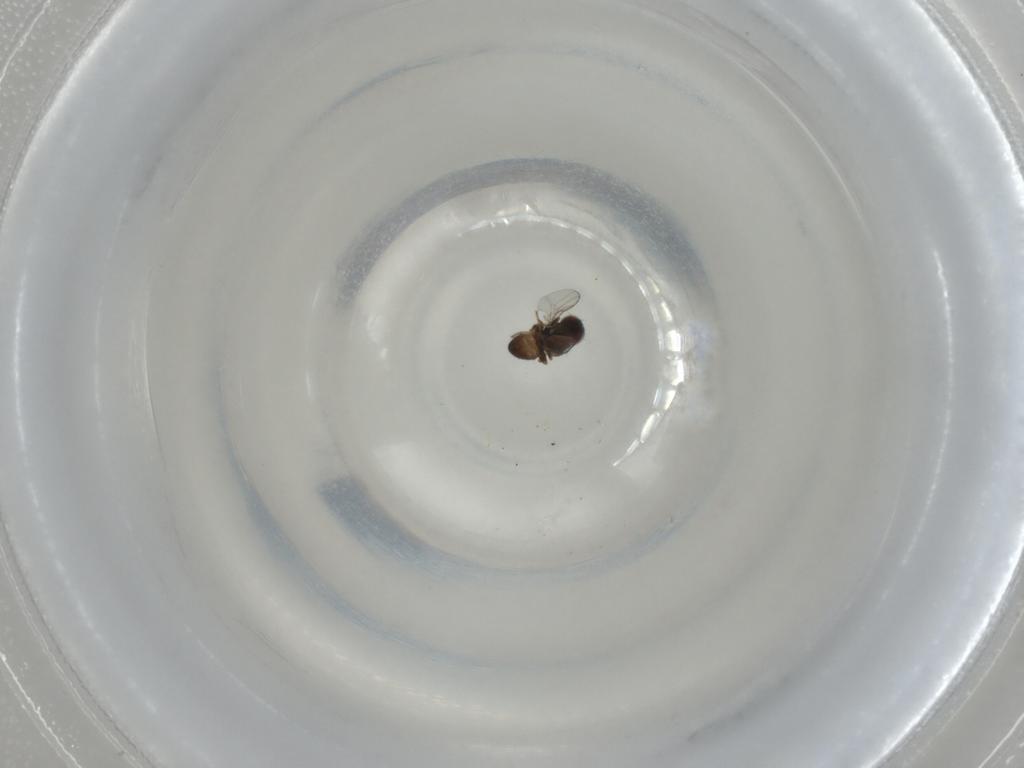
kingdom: Animalia
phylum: Arthropoda
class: Insecta
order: Diptera
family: Chloropidae
